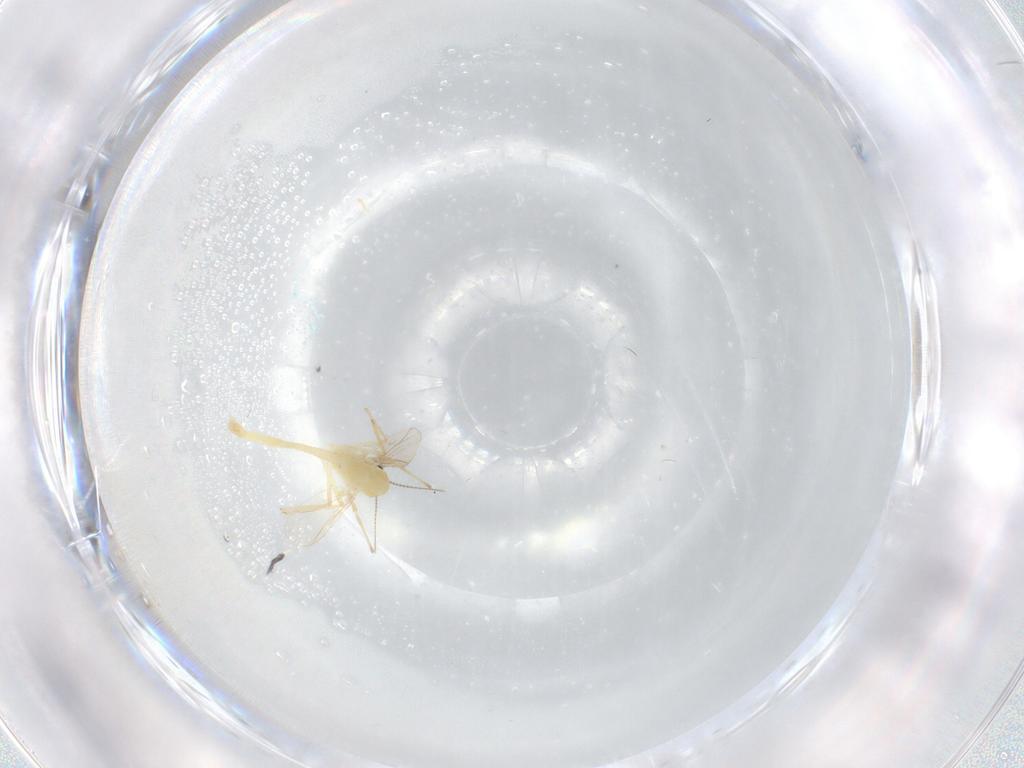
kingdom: Animalia
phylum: Arthropoda
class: Insecta
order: Diptera
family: Chironomidae
